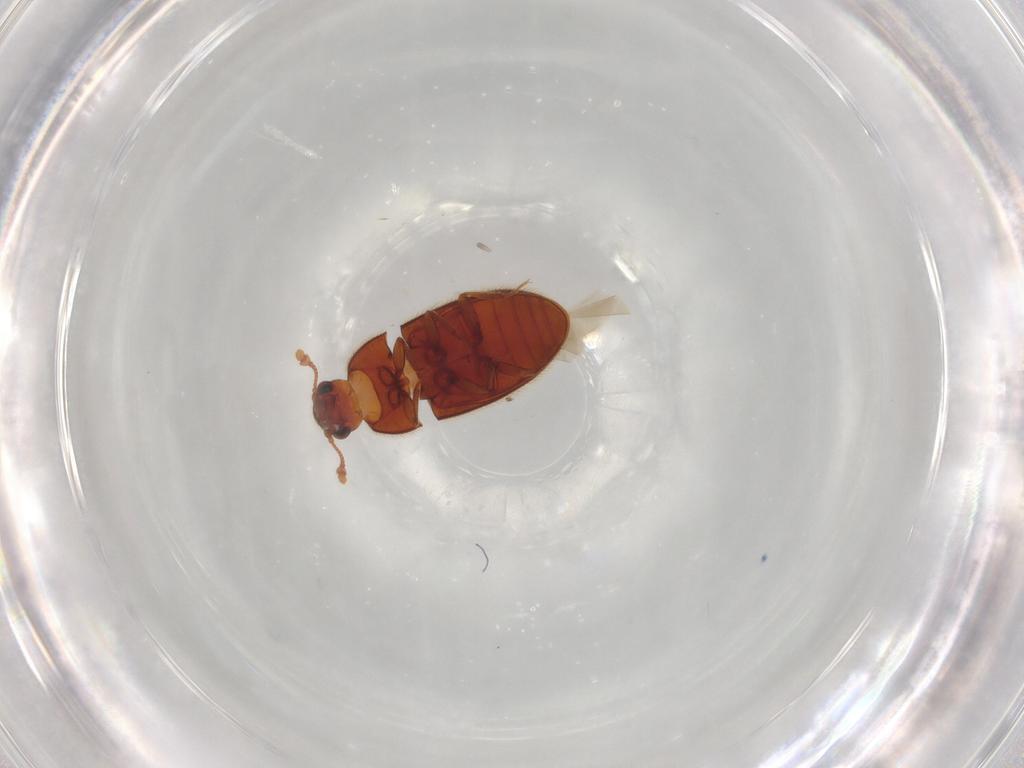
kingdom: Animalia
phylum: Arthropoda
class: Insecta
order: Coleoptera
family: Biphyllidae
